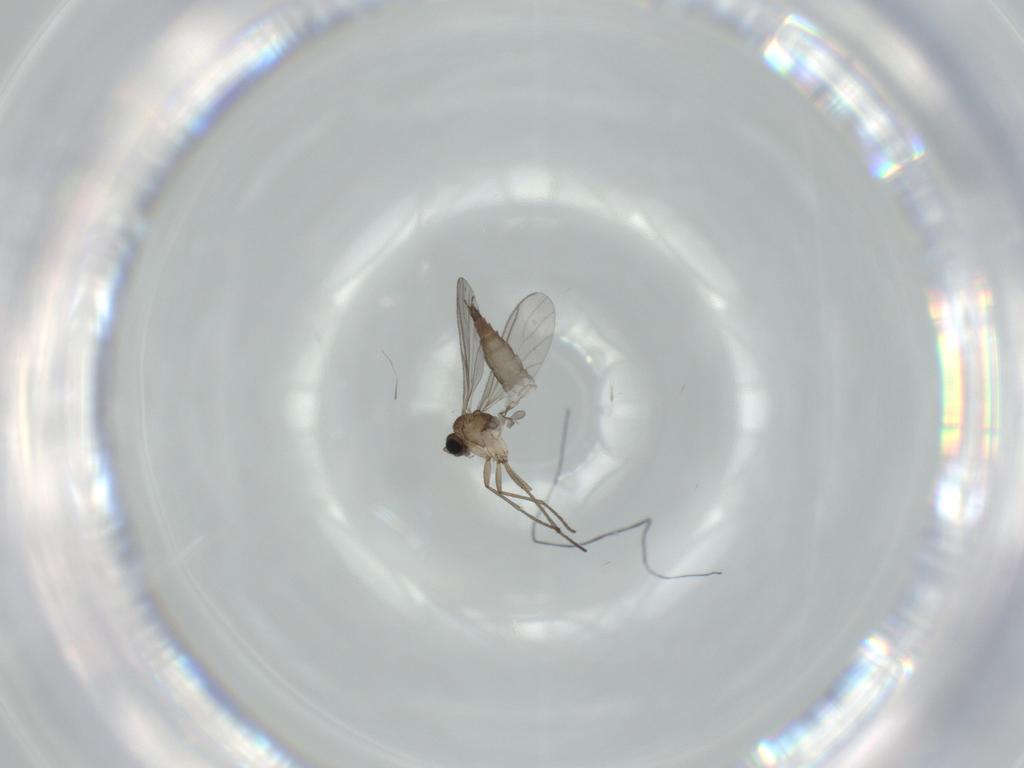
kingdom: Animalia
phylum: Arthropoda
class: Insecta
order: Diptera
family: Sciaridae
